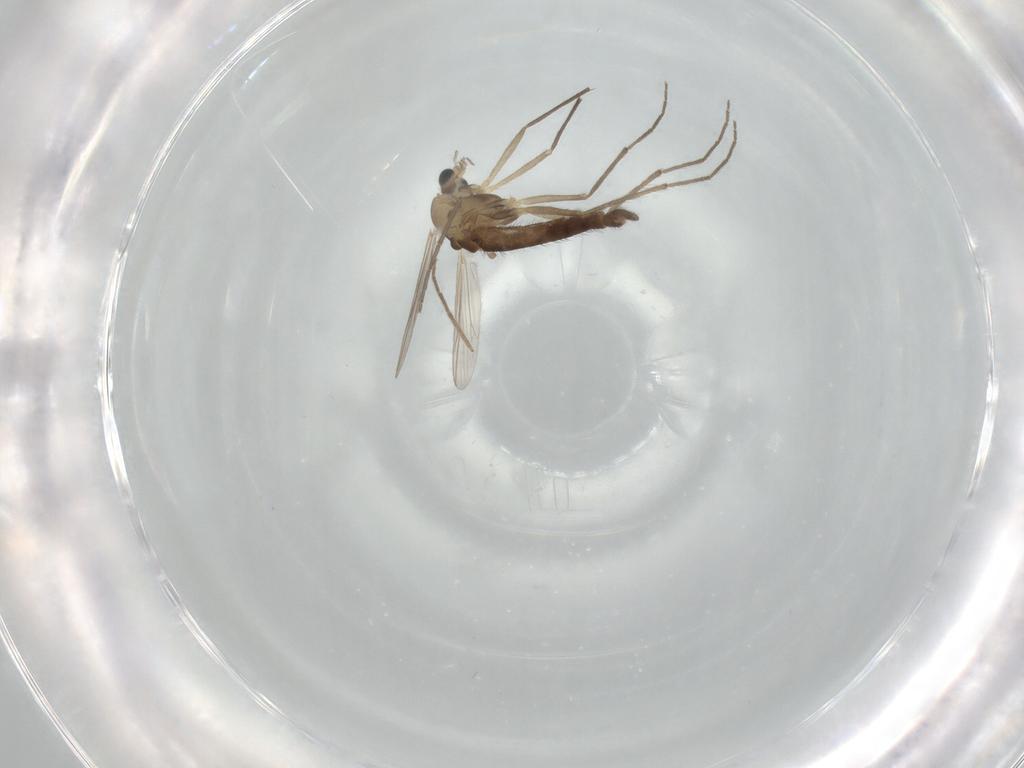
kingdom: Animalia
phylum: Arthropoda
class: Insecta
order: Diptera
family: Chironomidae
